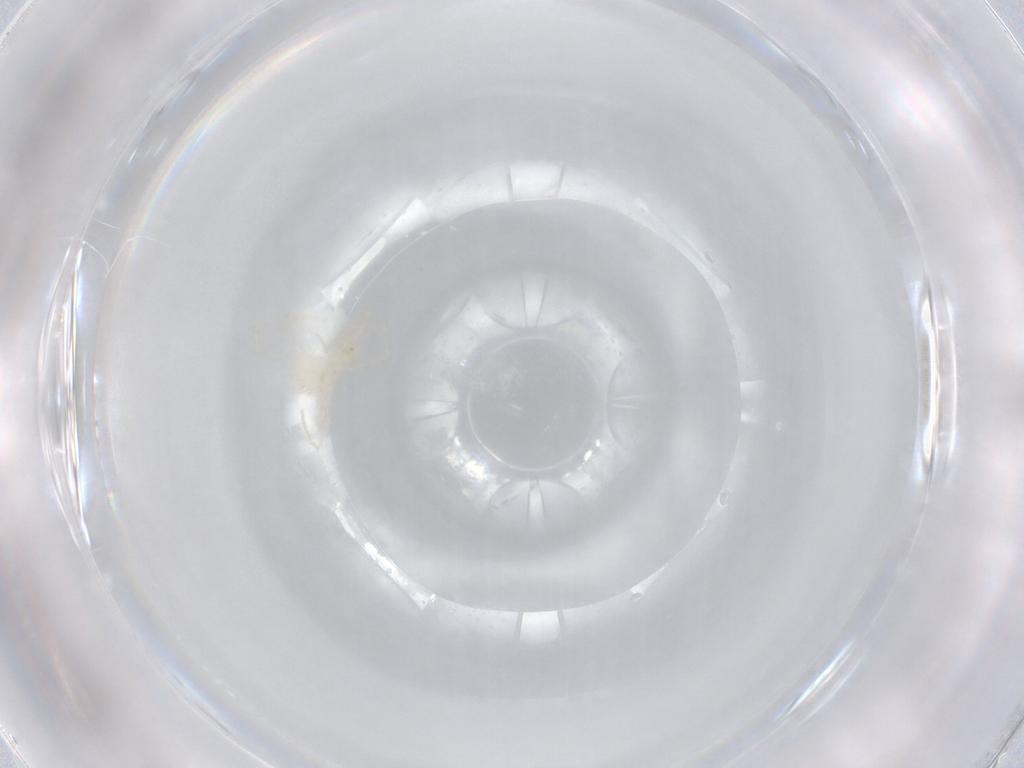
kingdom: Animalia
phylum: Arthropoda
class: Arachnida
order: Trombidiformes
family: Erythraeidae
